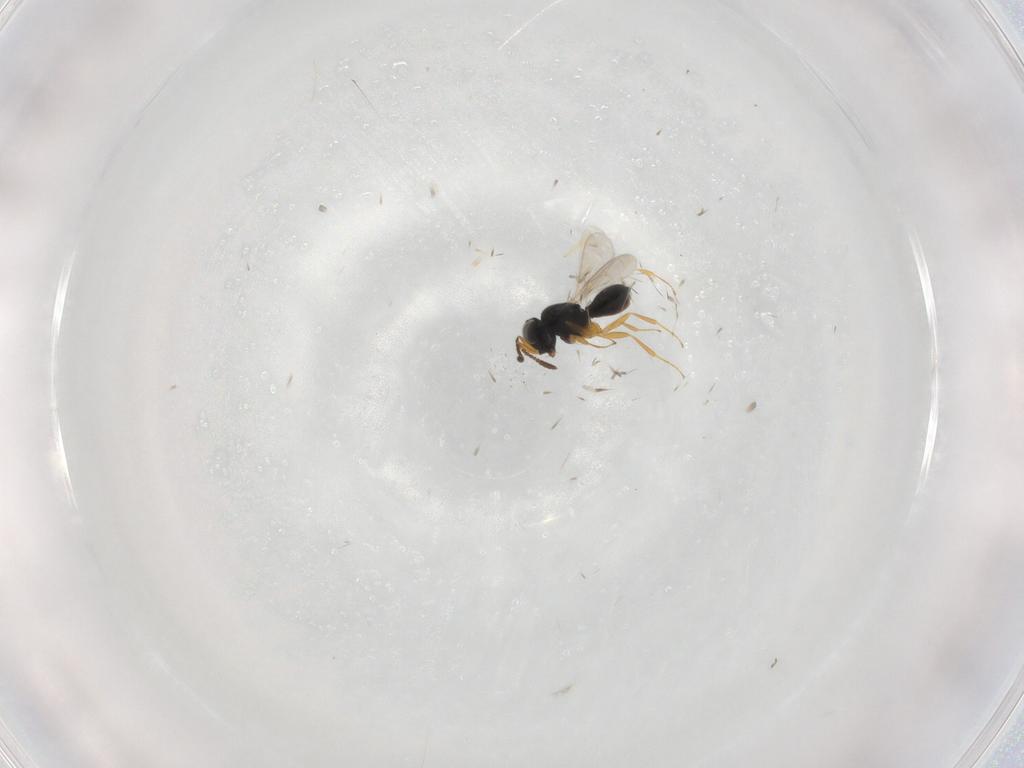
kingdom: Animalia
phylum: Arthropoda
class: Insecta
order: Hymenoptera
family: Scelionidae
